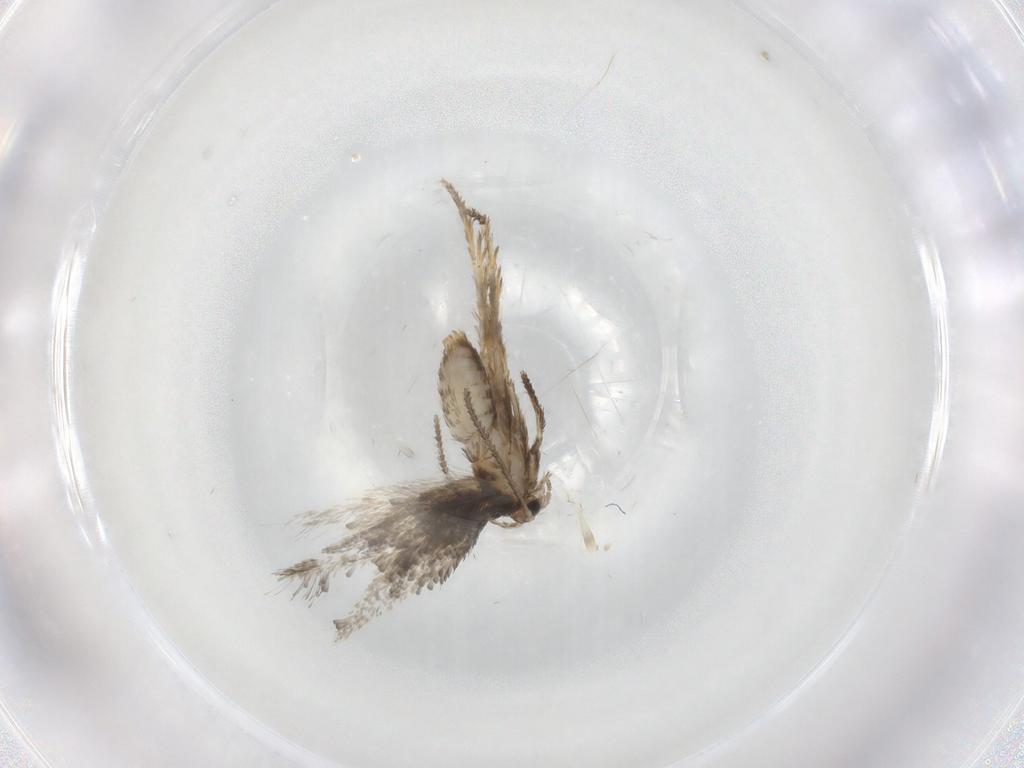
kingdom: Animalia
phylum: Arthropoda
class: Insecta
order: Lepidoptera
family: Nepticulidae
